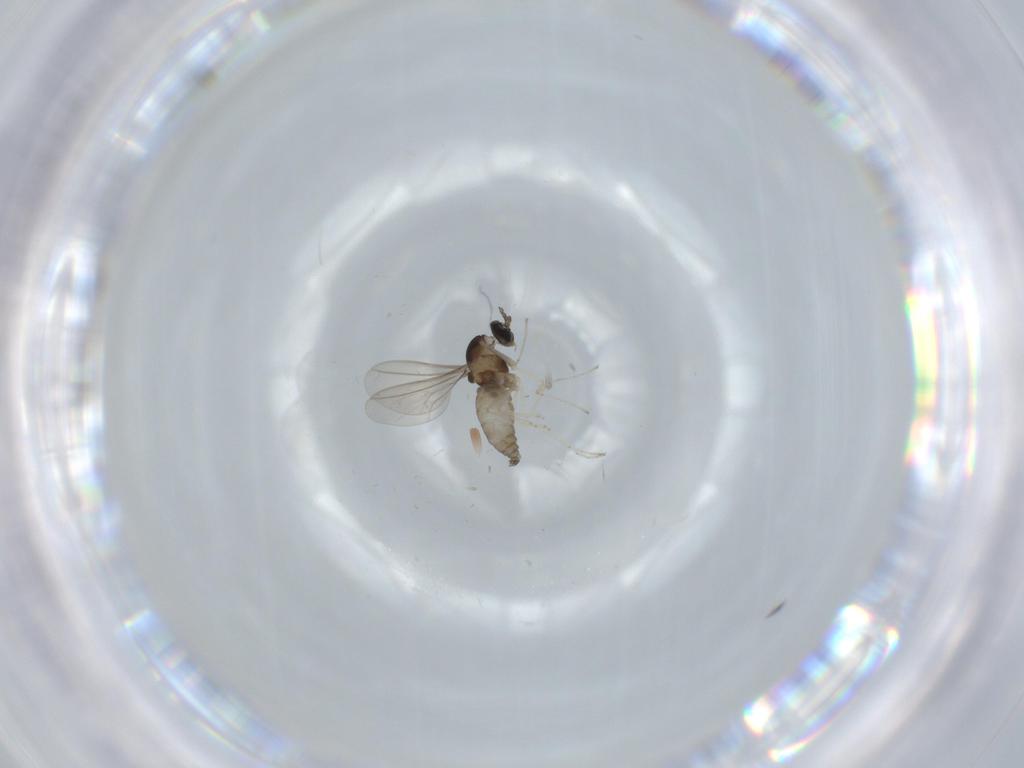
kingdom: Animalia
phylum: Arthropoda
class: Insecta
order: Diptera
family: Cecidomyiidae
